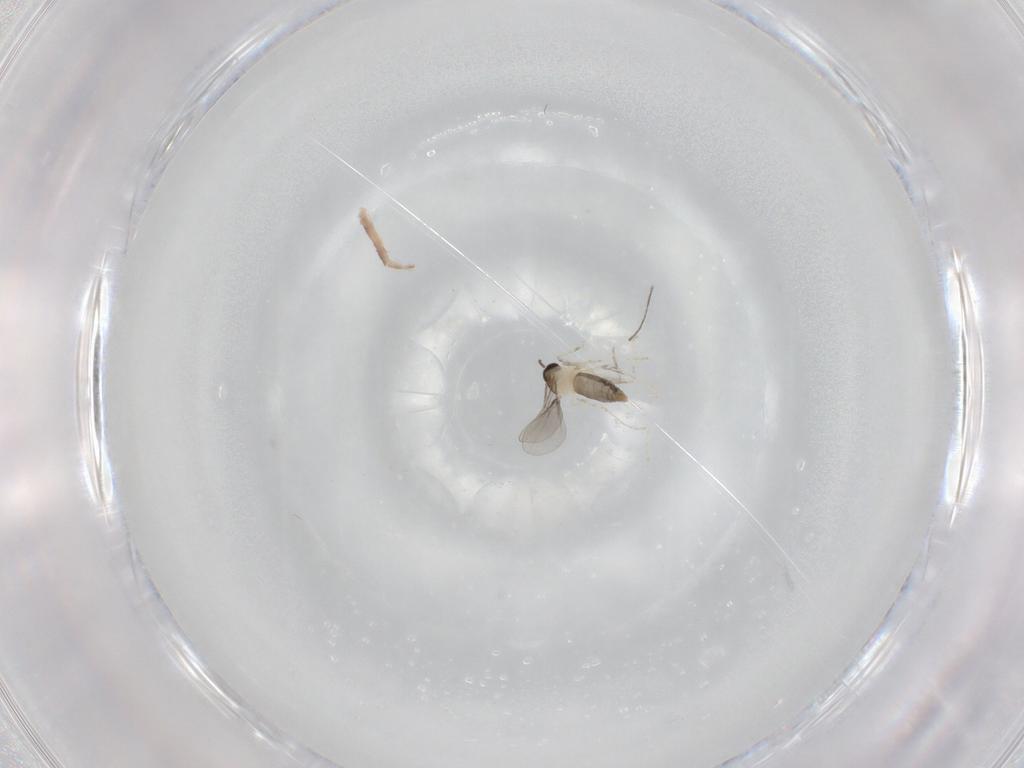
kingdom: Animalia
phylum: Arthropoda
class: Insecta
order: Diptera
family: Cecidomyiidae
